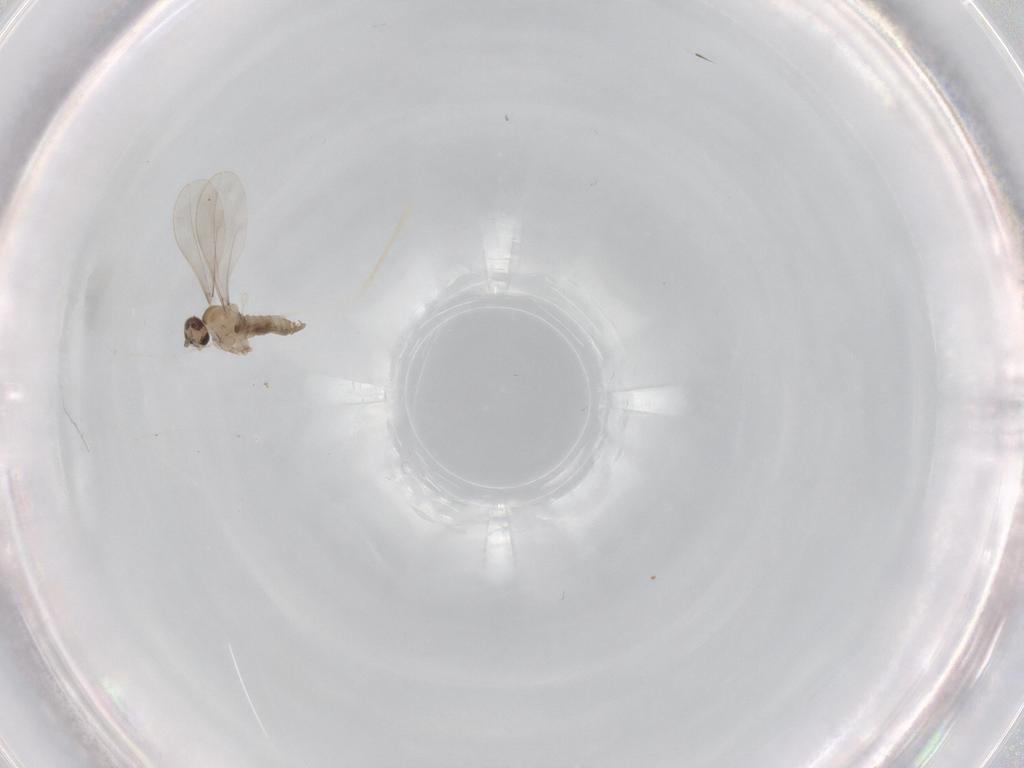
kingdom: Animalia
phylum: Arthropoda
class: Insecta
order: Diptera
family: Cecidomyiidae
